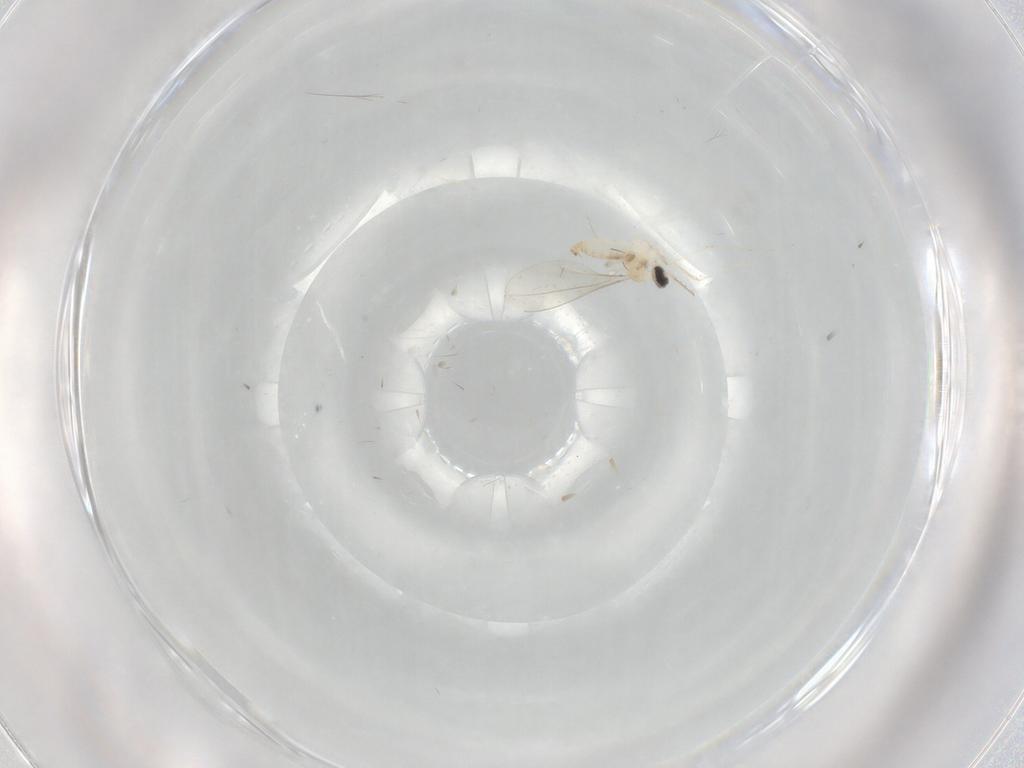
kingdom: Animalia
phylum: Arthropoda
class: Insecta
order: Diptera
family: Cecidomyiidae
